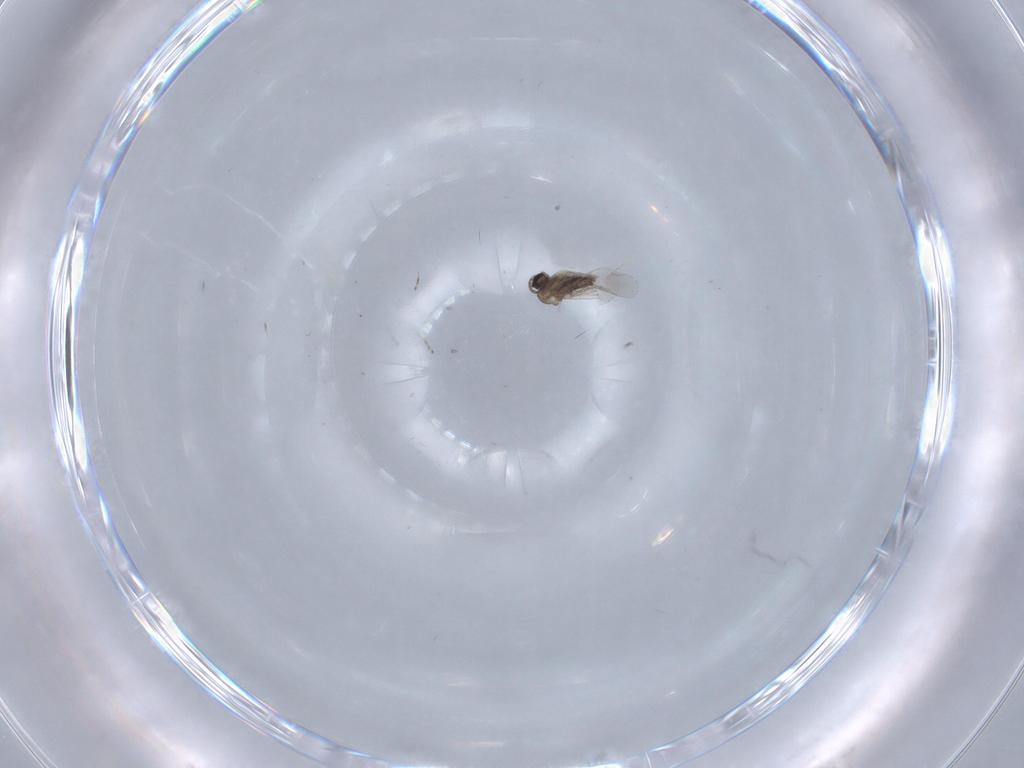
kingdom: Animalia
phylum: Arthropoda
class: Insecta
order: Diptera
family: Cecidomyiidae
